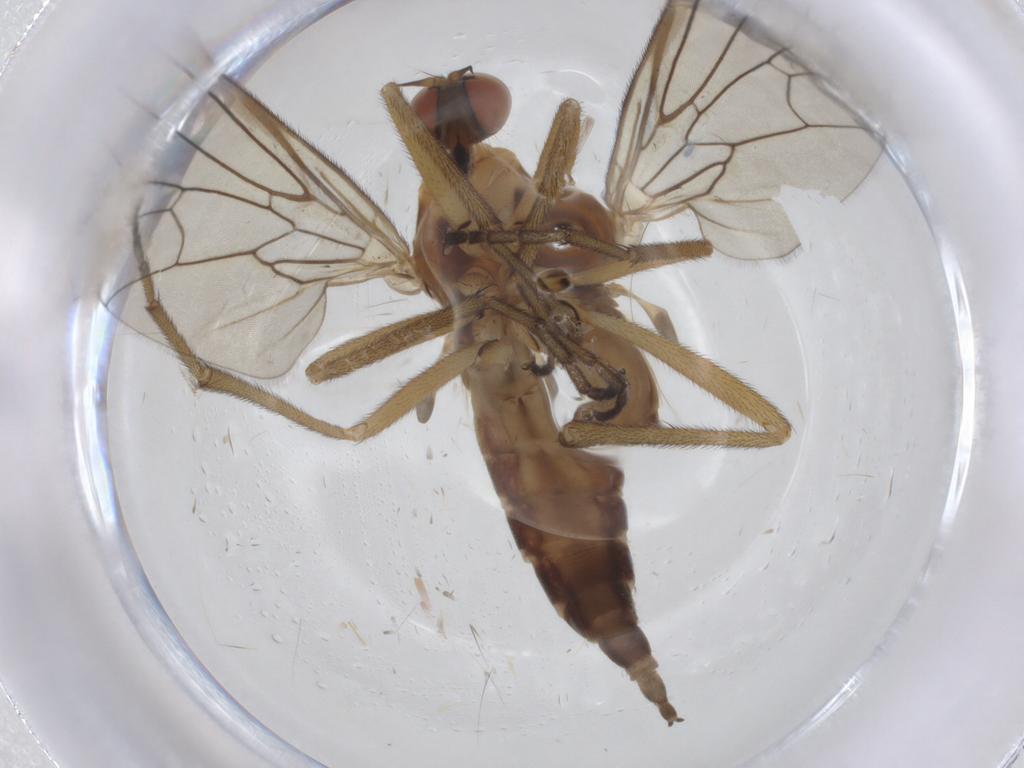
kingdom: Animalia
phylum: Arthropoda
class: Insecta
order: Diptera
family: Empididae
